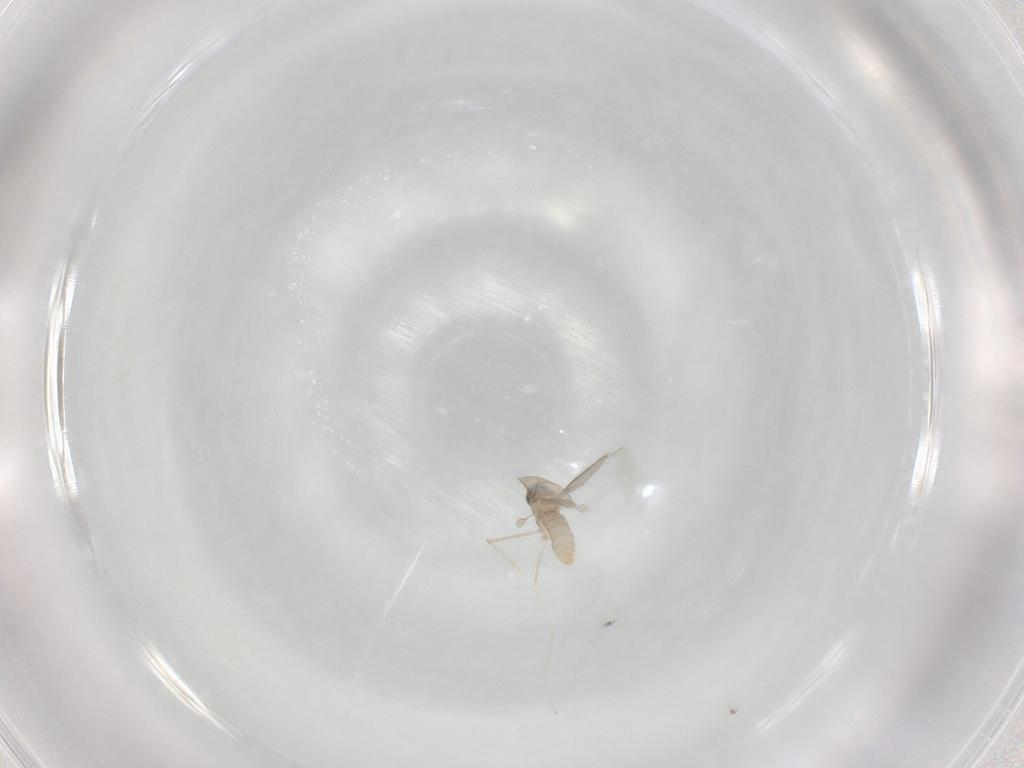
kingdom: Animalia
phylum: Arthropoda
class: Insecta
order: Diptera
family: Cecidomyiidae
